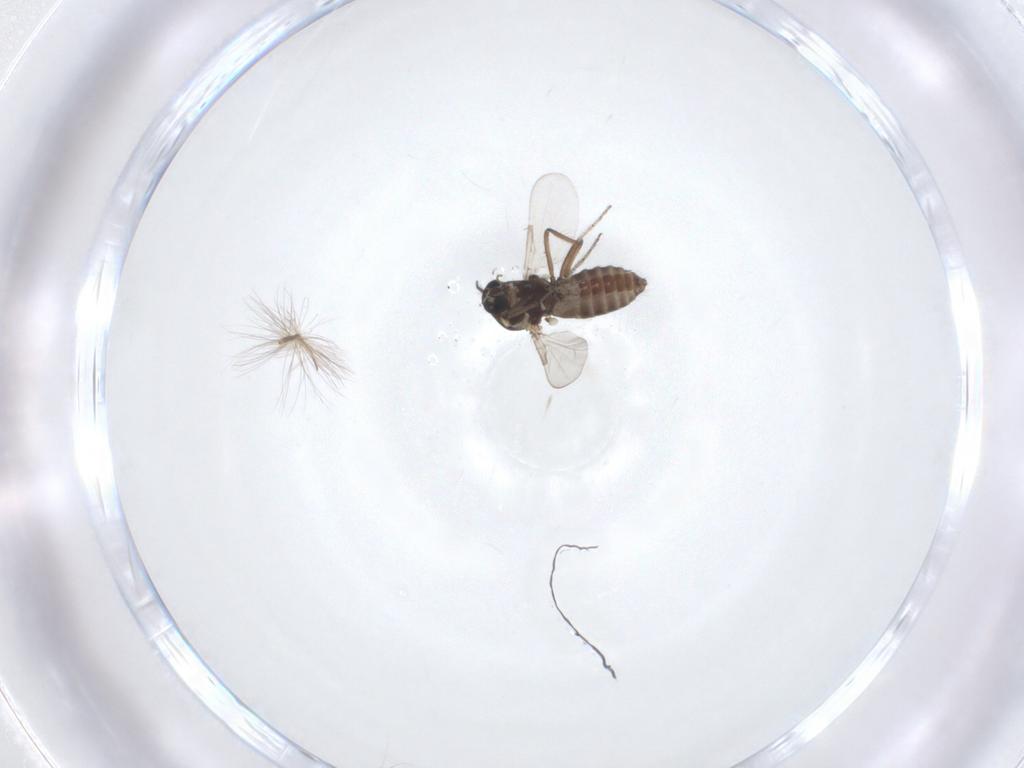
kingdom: Animalia
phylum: Arthropoda
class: Insecta
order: Diptera
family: Ceratopogonidae
